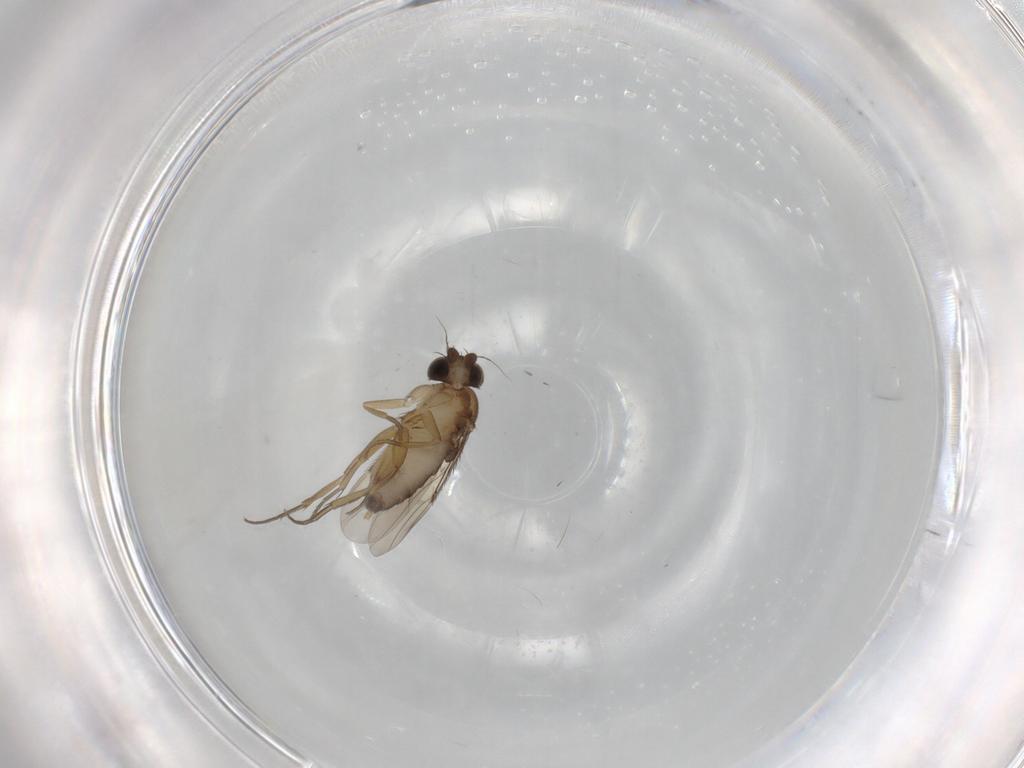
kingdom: Animalia
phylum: Arthropoda
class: Insecta
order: Diptera
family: Phoridae
